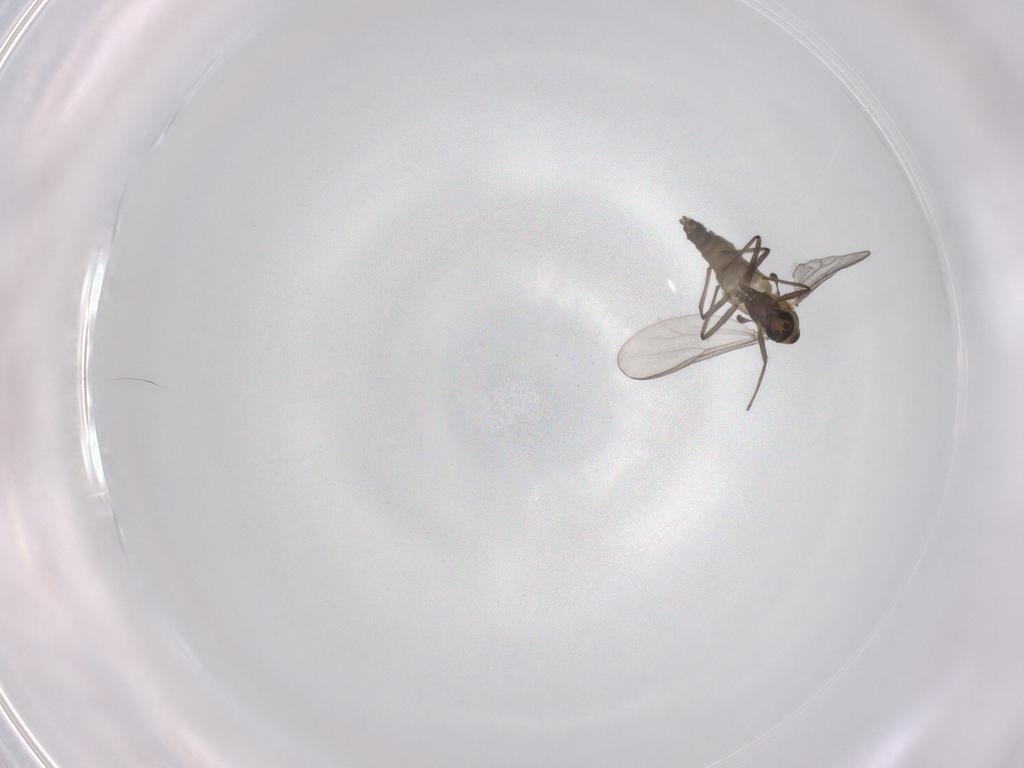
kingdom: Animalia
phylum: Arthropoda
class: Insecta
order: Diptera
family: Chironomidae
